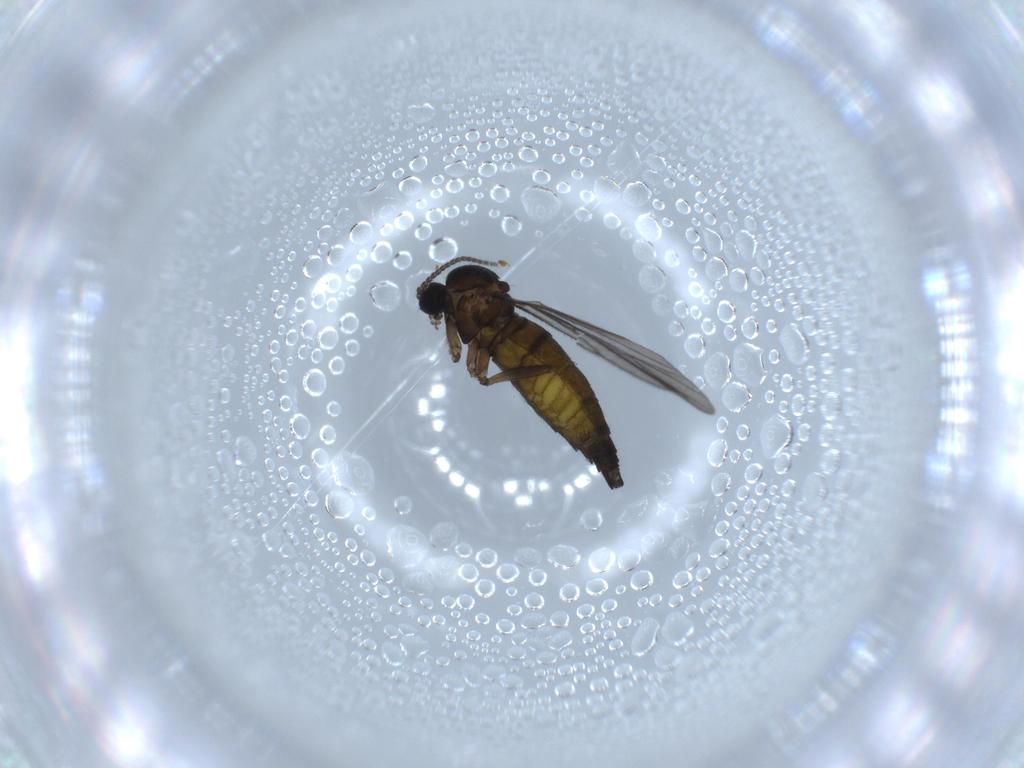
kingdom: Animalia
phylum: Arthropoda
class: Insecta
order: Diptera
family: Sciaridae
